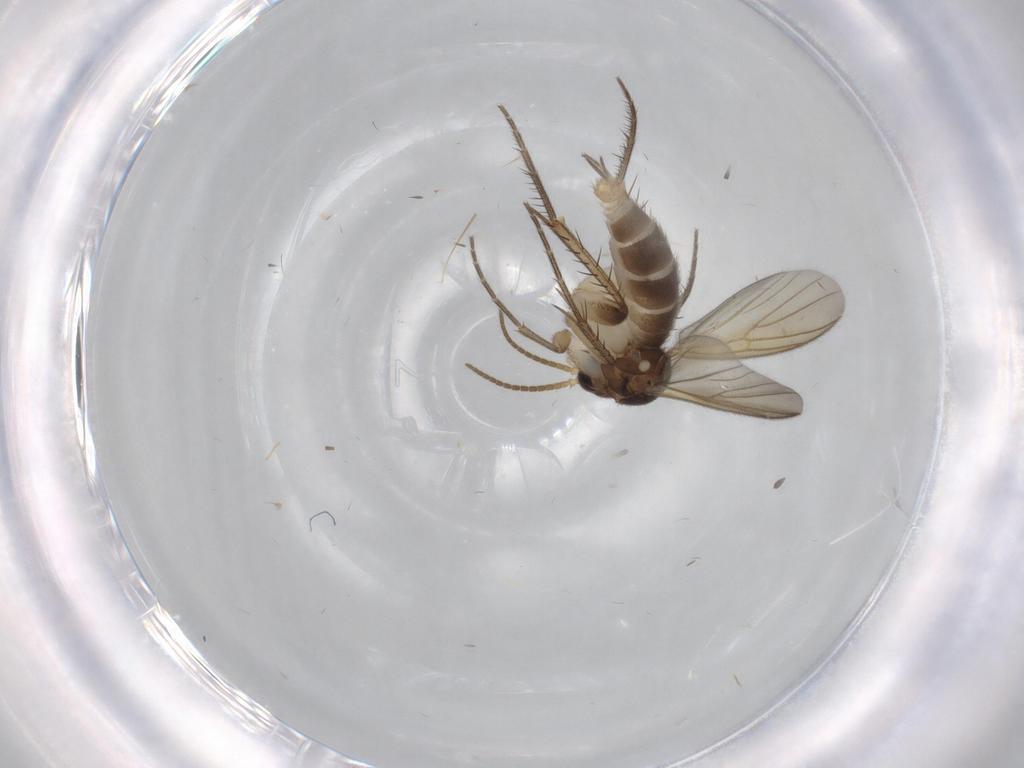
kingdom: Animalia
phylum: Arthropoda
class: Insecta
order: Diptera
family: Mycetophilidae
